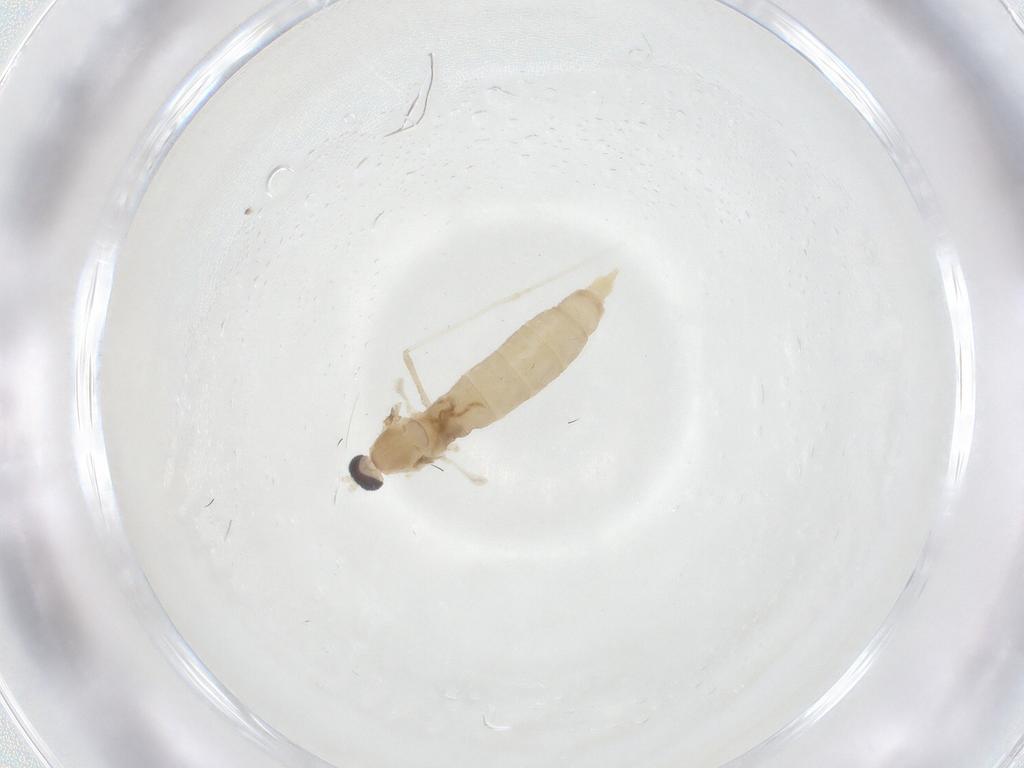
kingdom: Animalia
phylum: Arthropoda
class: Insecta
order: Diptera
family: Cecidomyiidae
